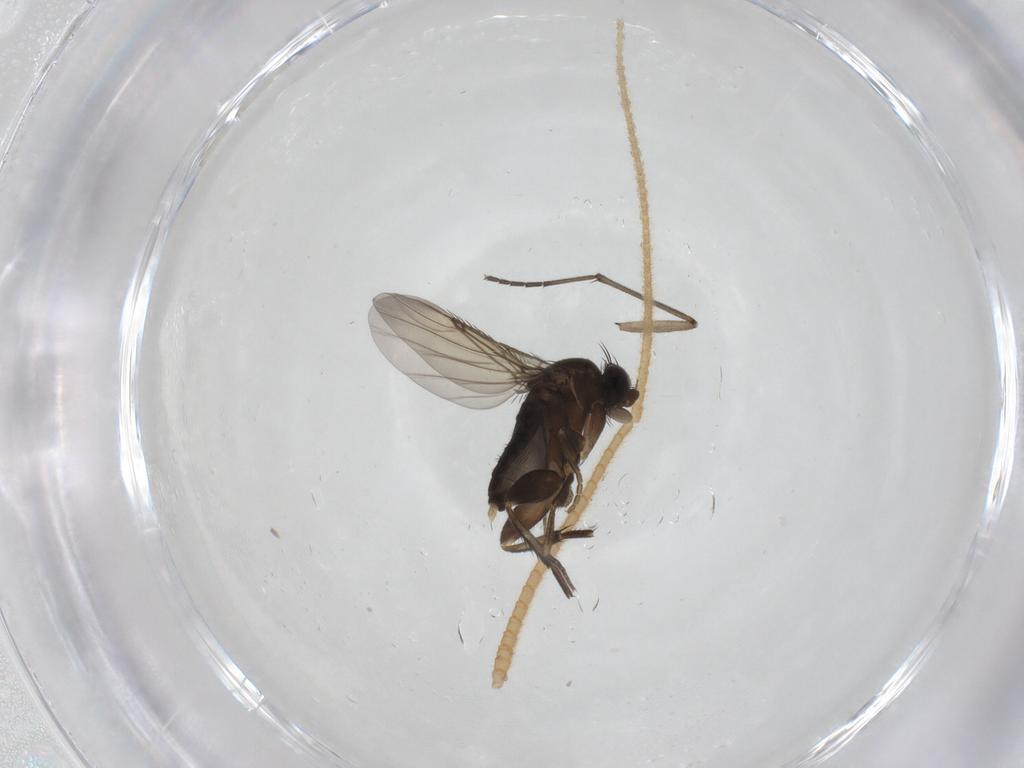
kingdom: Animalia
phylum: Arthropoda
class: Insecta
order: Diptera
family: Phoridae
